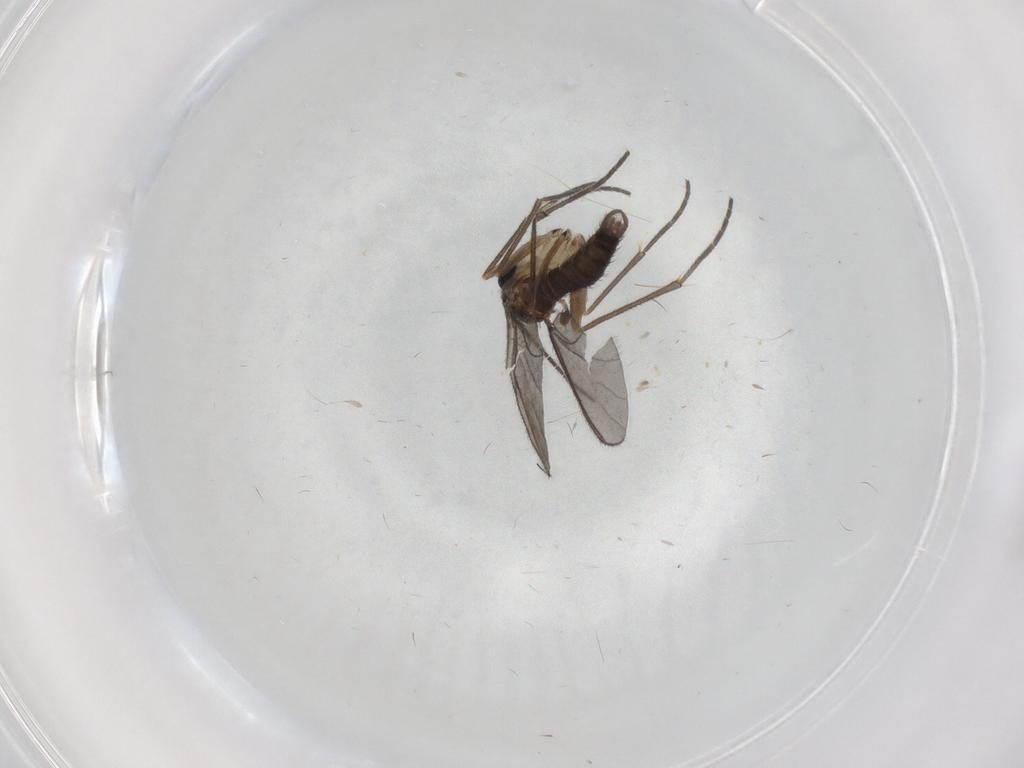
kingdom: Animalia
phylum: Arthropoda
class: Insecta
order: Diptera
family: Sciaridae
